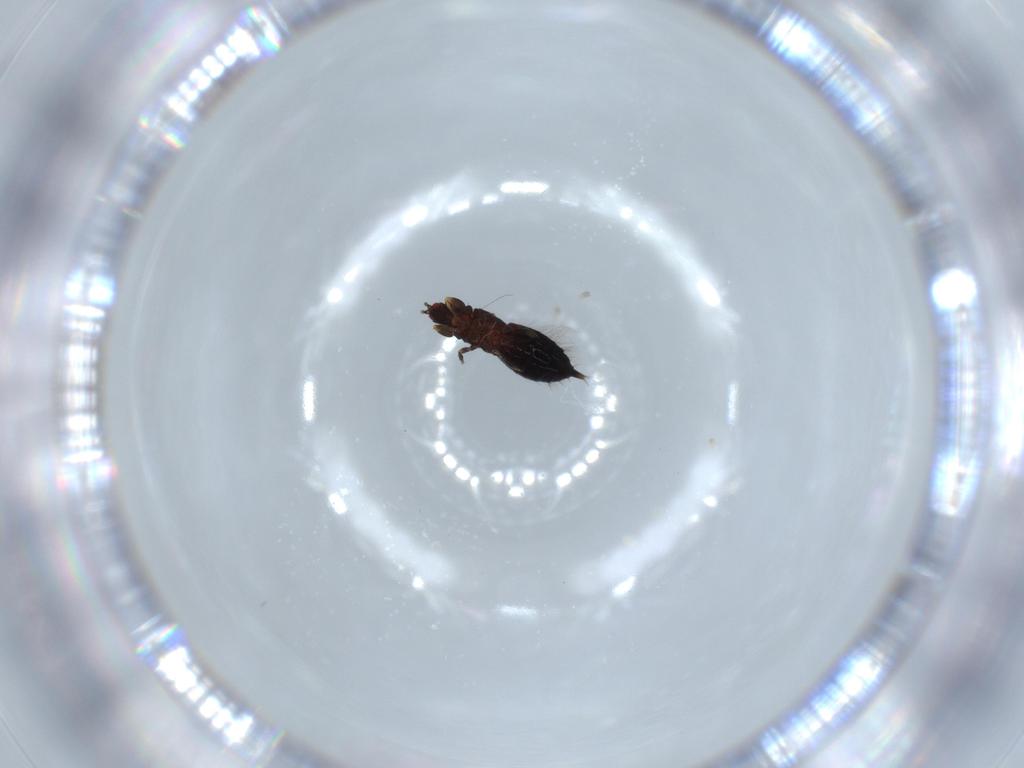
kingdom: Animalia
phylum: Arthropoda
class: Insecta
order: Thysanoptera
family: Phlaeothripidae
